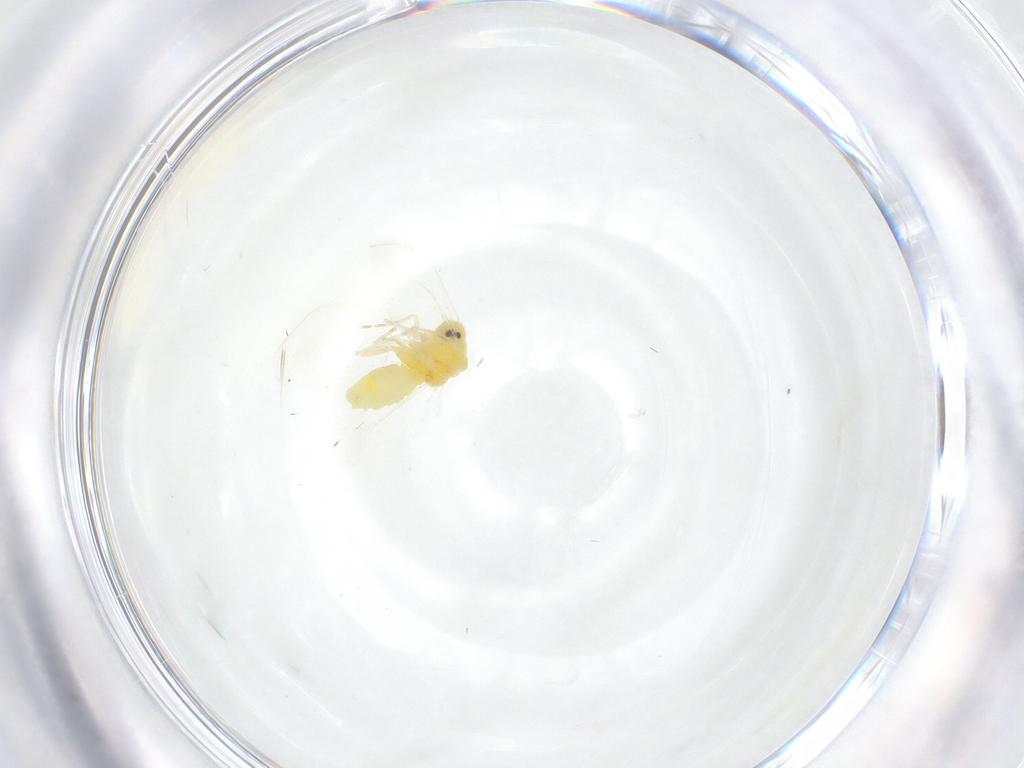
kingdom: Animalia
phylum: Arthropoda
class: Insecta
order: Hemiptera
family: Aleyrodidae
